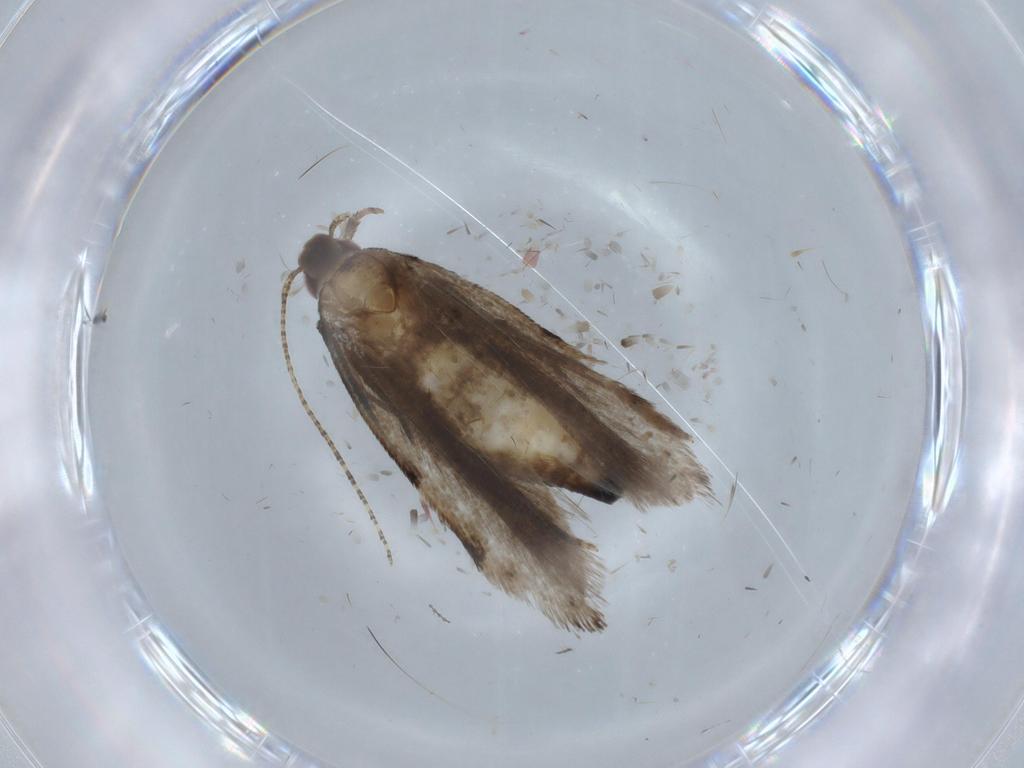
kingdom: Animalia
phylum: Arthropoda
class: Insecta
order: Lepidoptera
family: Gelechiidae
